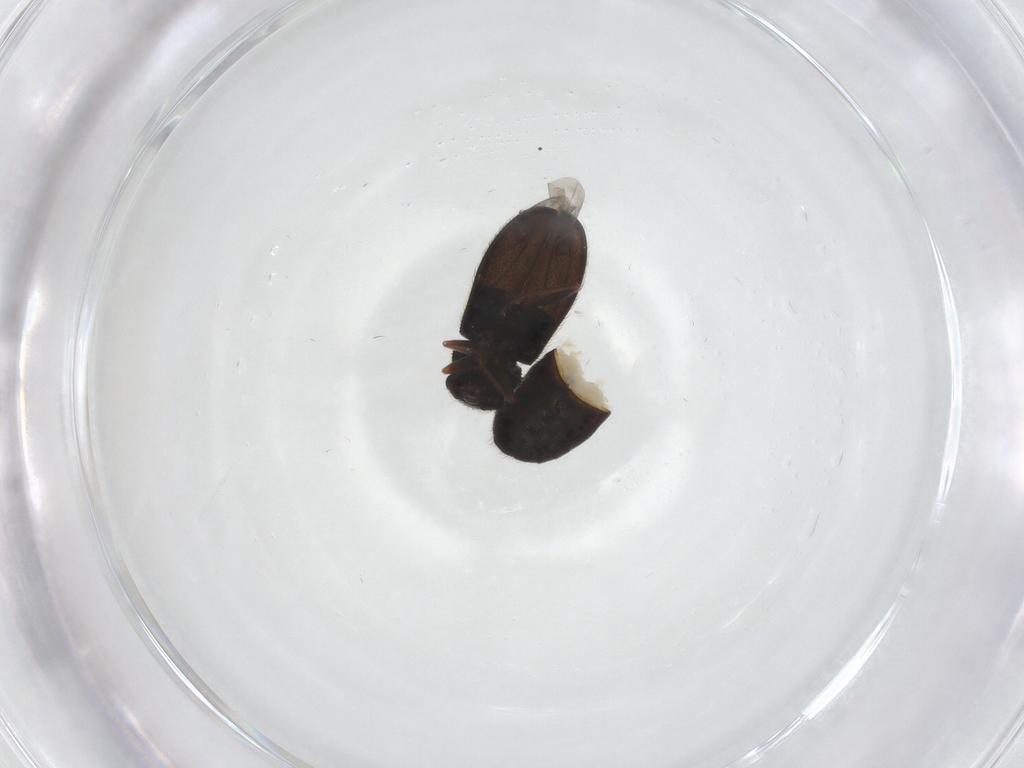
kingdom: Animalia
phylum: Arthropoda
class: Insecta
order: Coleoptera
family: Melyridae
